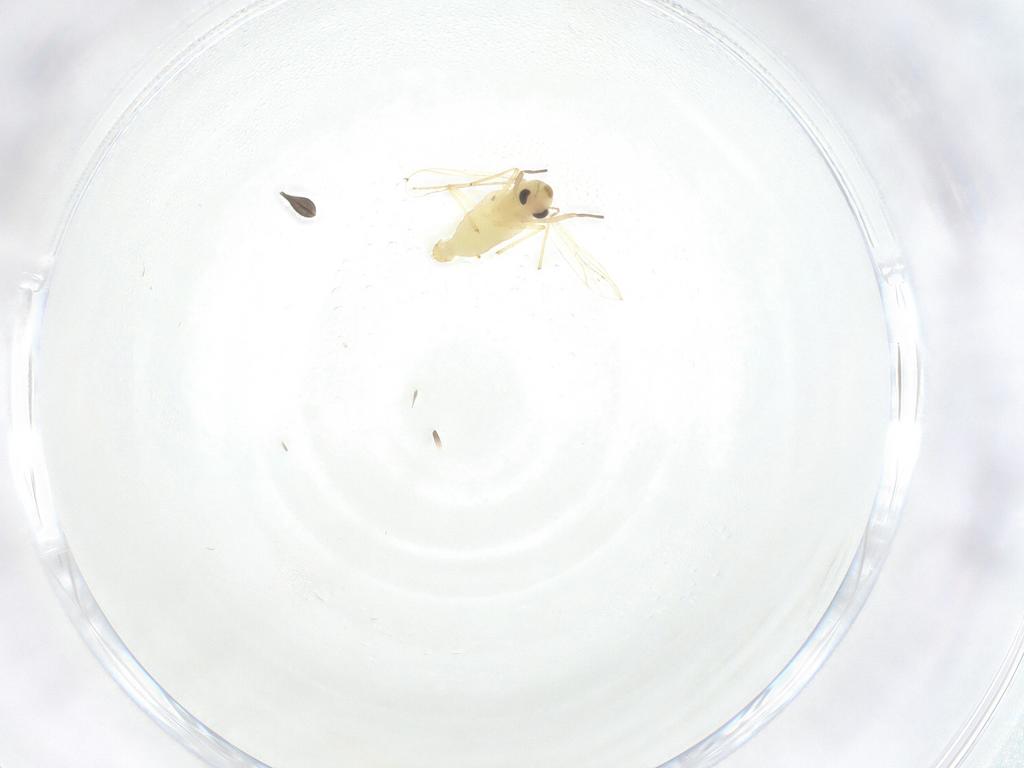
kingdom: Animalia
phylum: Arthropoda
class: Insecta
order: Diptera
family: Chironomidae
